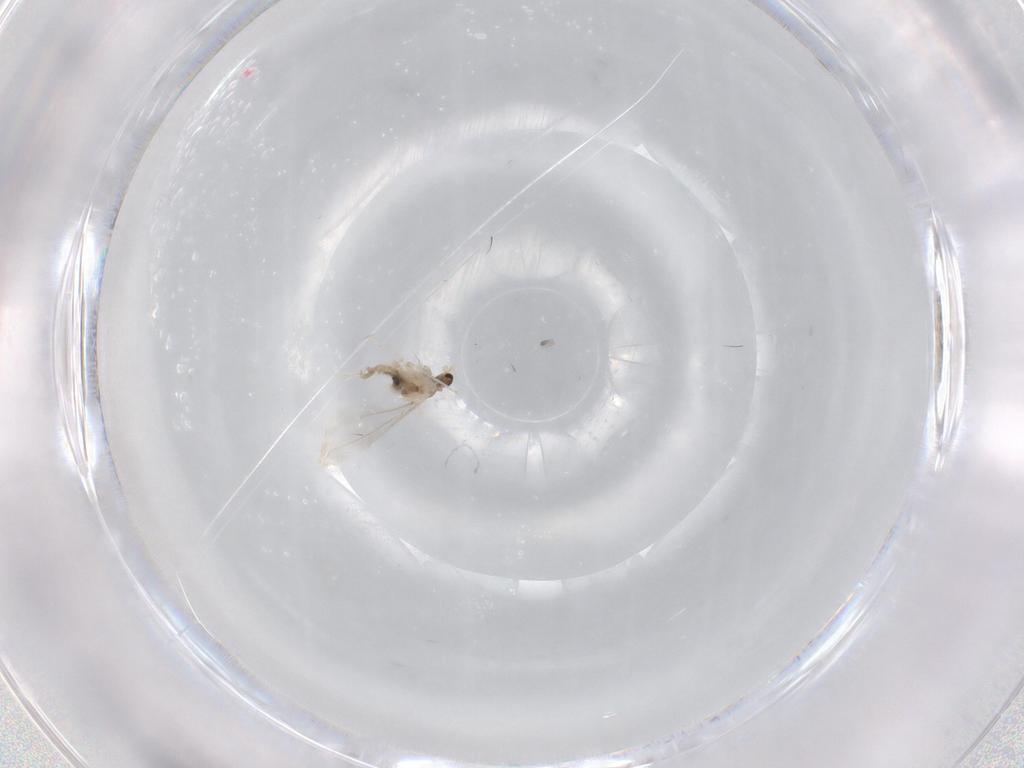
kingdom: Animalia
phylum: Arthropoda
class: Insecta
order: Diptera
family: Cecidomyiidae
